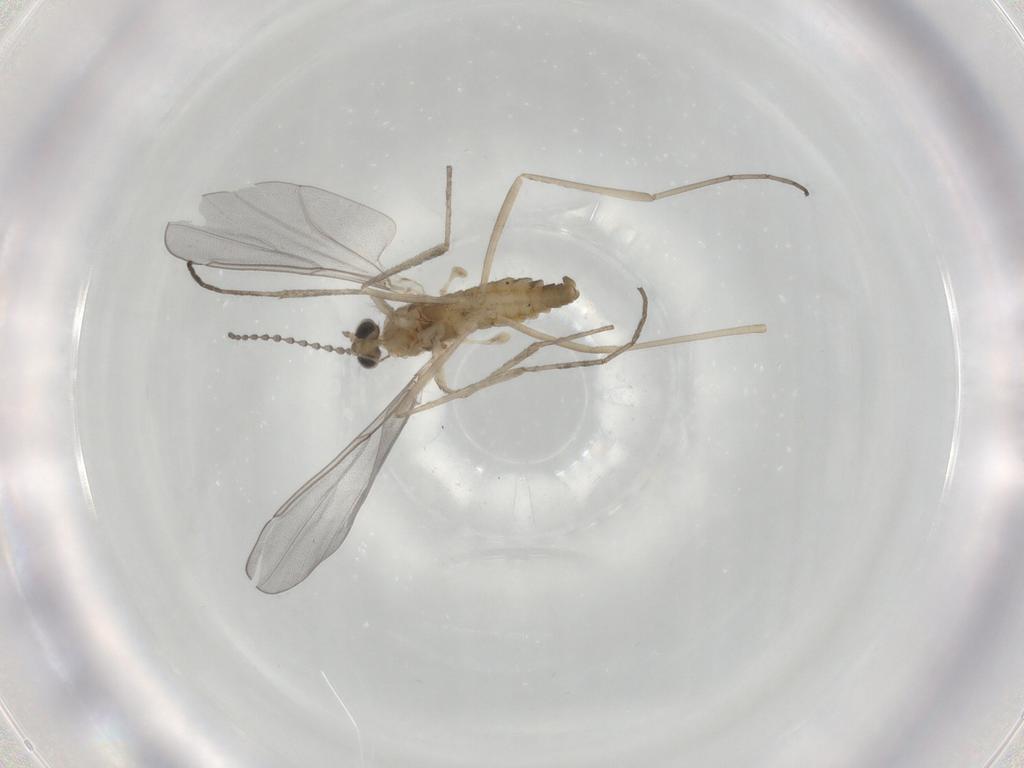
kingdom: Animalia
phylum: Arthropoda
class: Insecta
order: Diptera
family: Cecidomyiidae
